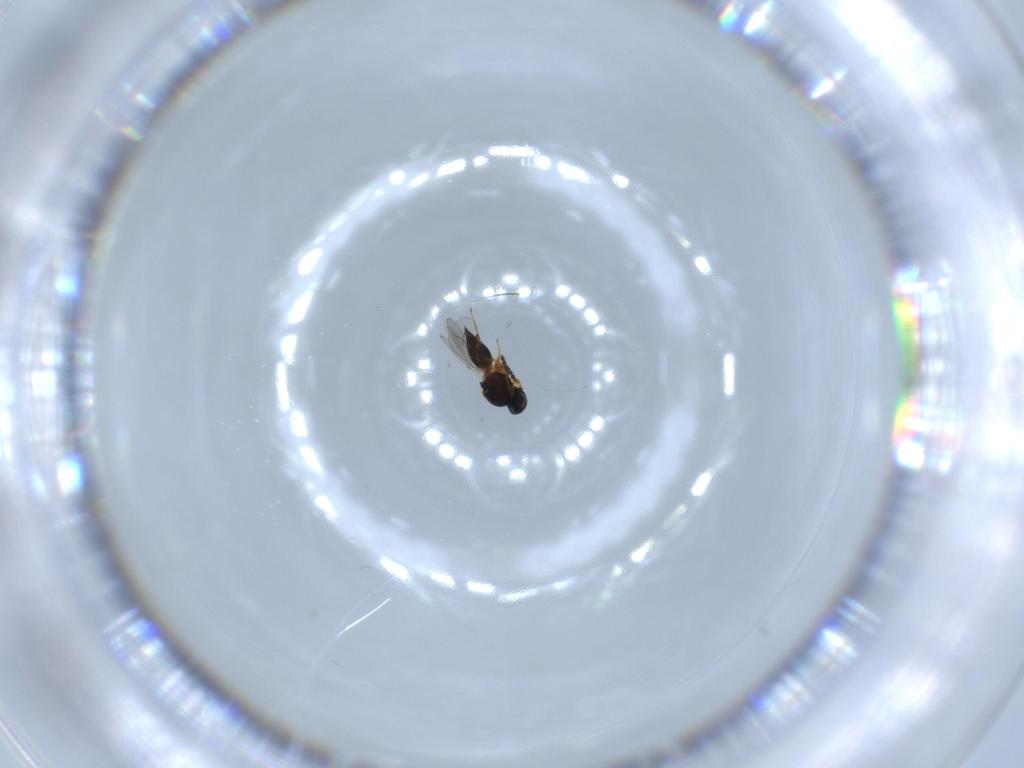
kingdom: Animalia
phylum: Arthropoda
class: Insecta
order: Hymenoptera
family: Platygastridae
